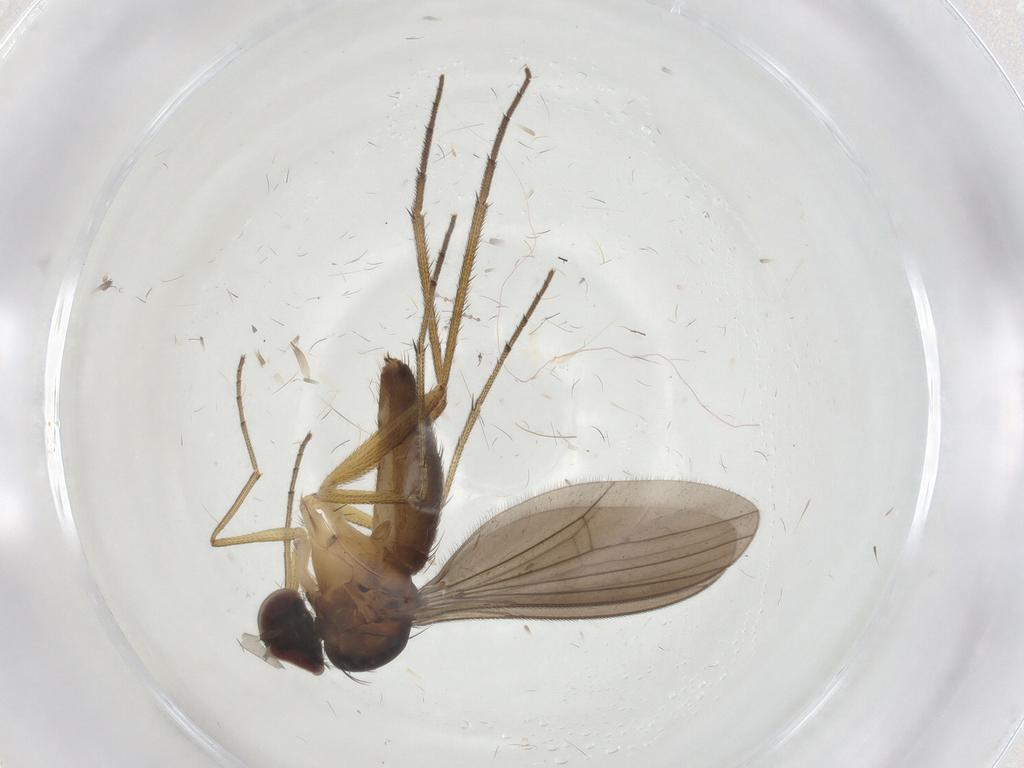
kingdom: Animalia
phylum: Arthropoda
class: Insecta
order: Diptera
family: Dolichopodidae
